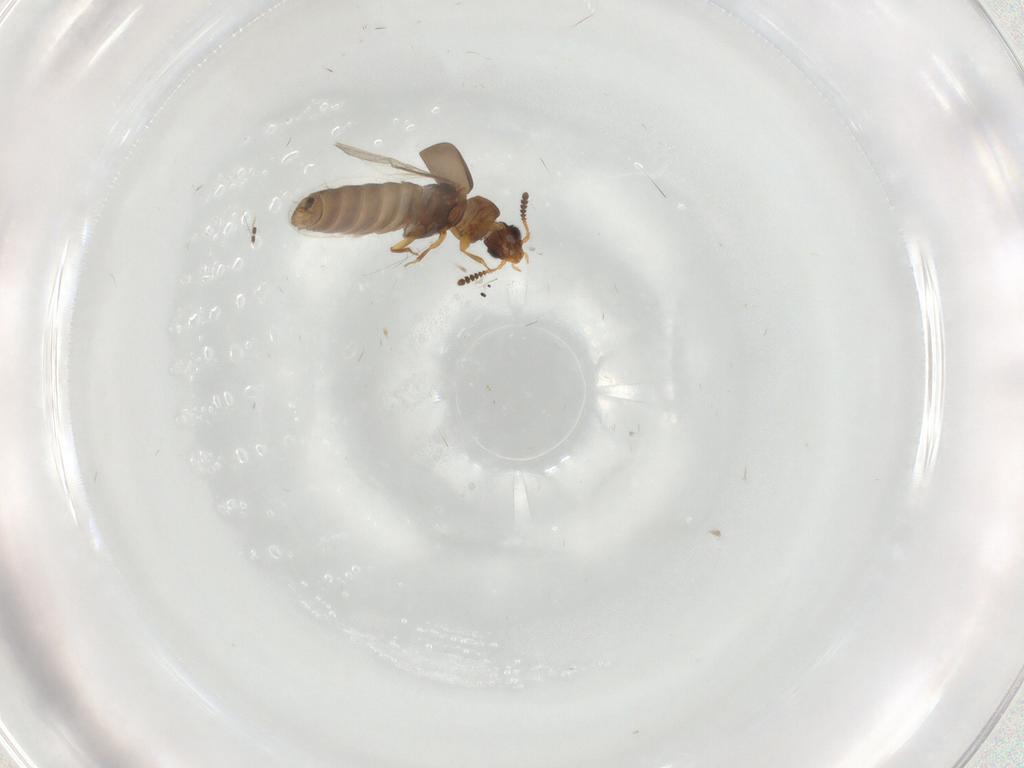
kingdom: Animalia
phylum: Arthropoda
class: Insecta
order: Coleoptera
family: Staphylinidae
